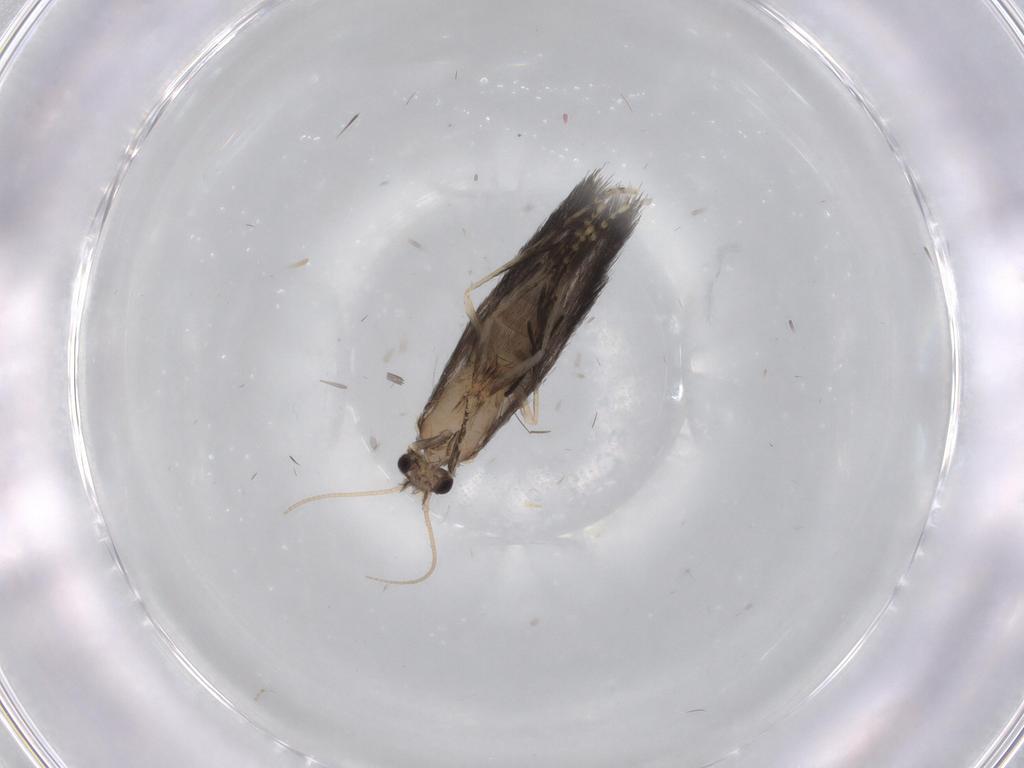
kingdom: Animalia
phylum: Arthropoda
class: Insecta
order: Trichoptera
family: Hydroptilidae
